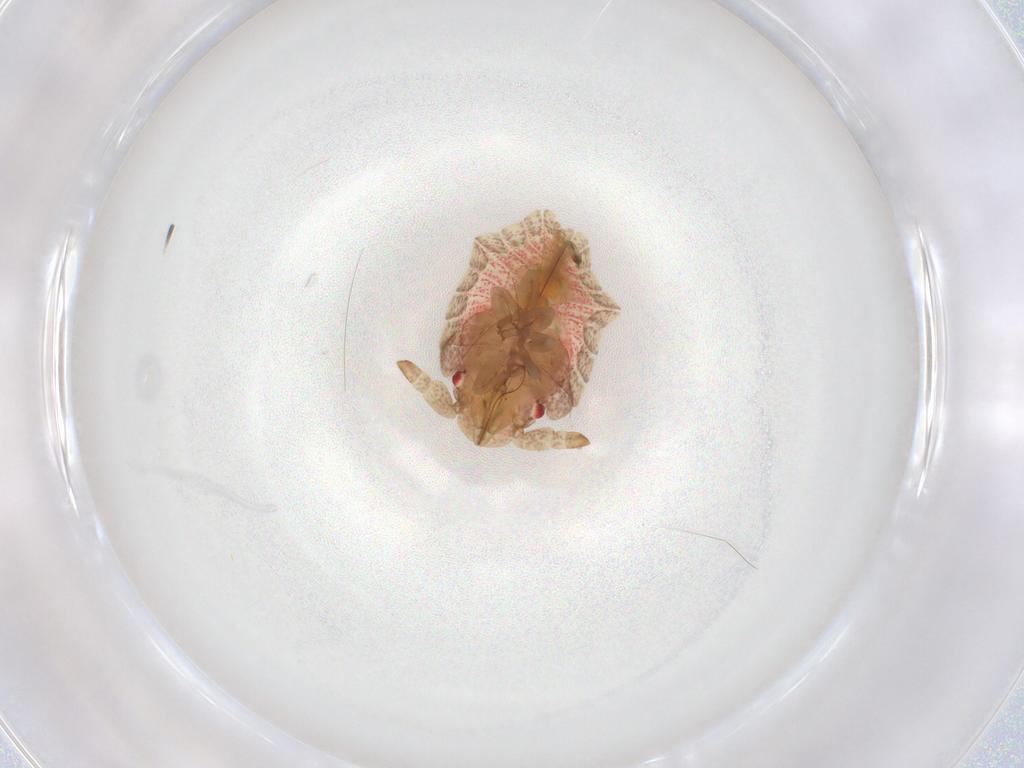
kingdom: Animalia
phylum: Arthropoda
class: Insecta
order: Hemiptera
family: Pentatomidae
